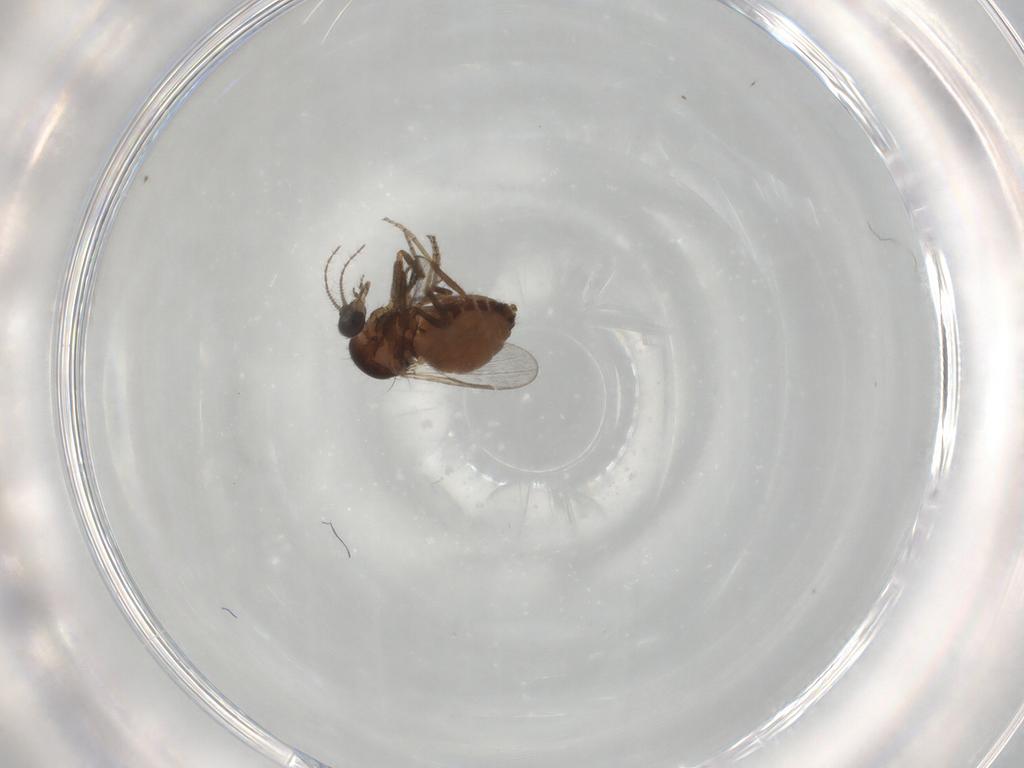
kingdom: Animalia
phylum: Arthropoda
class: Insecta
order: Diptera
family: Ceratopogonidae
